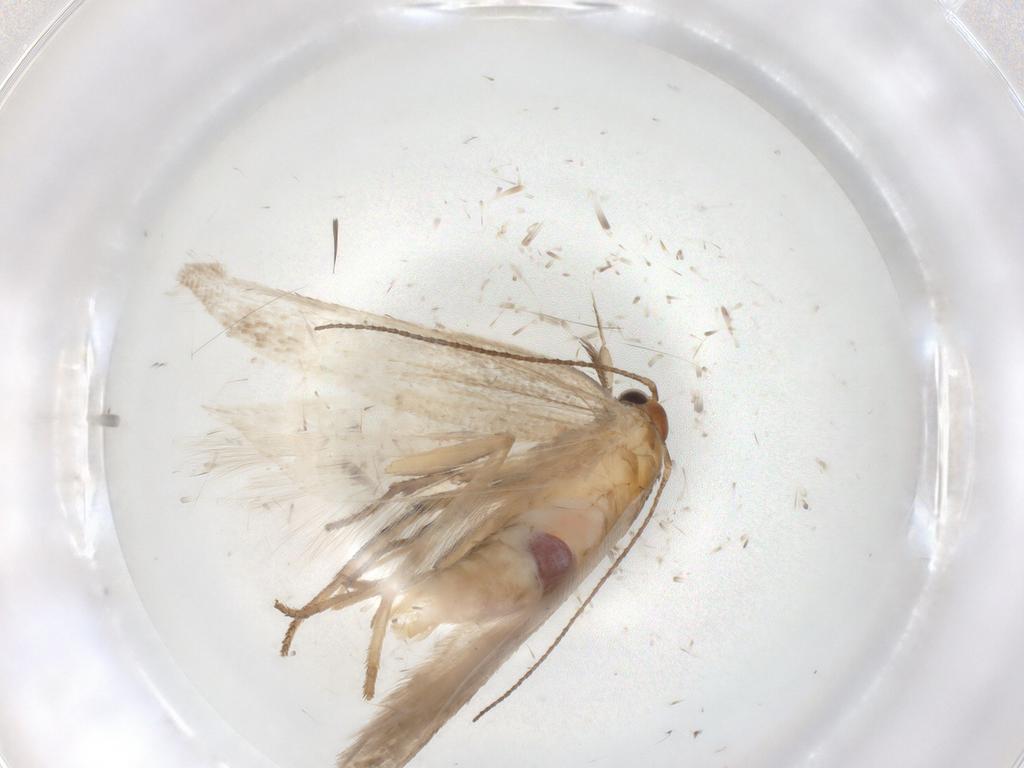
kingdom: Animalia
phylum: Arthropoda
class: Insecta
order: Lepidoptera
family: Gelechiidae
